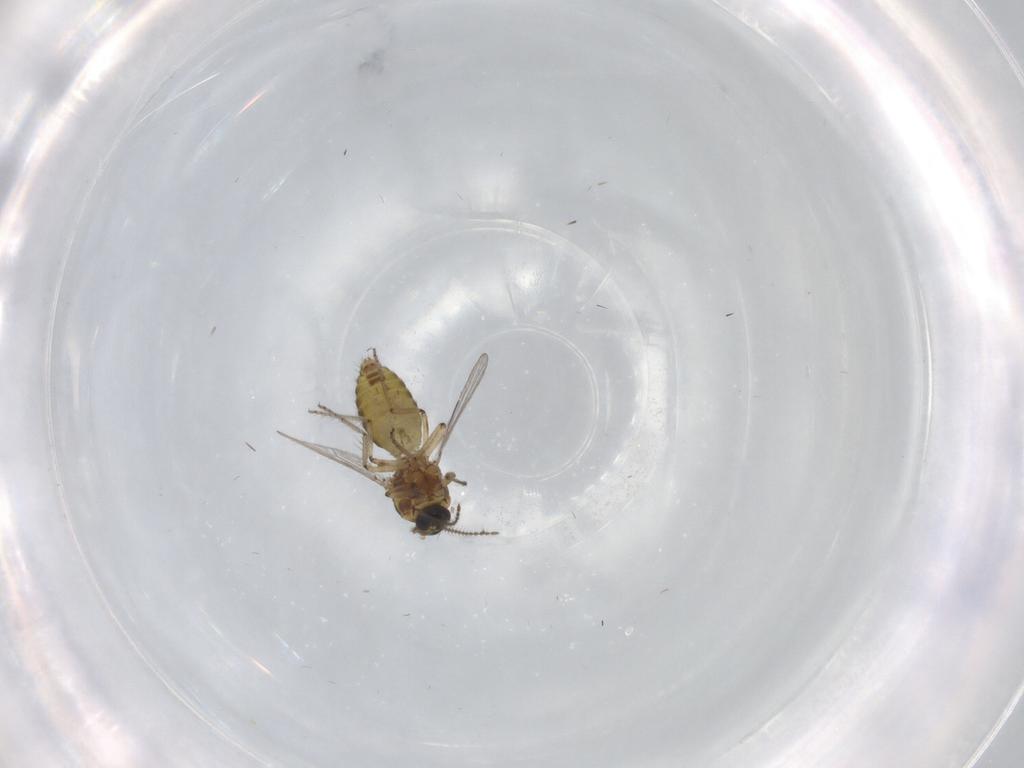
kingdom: Animalia
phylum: Arthropoda
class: Insecta
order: Diptera
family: Ceratopogonidae
